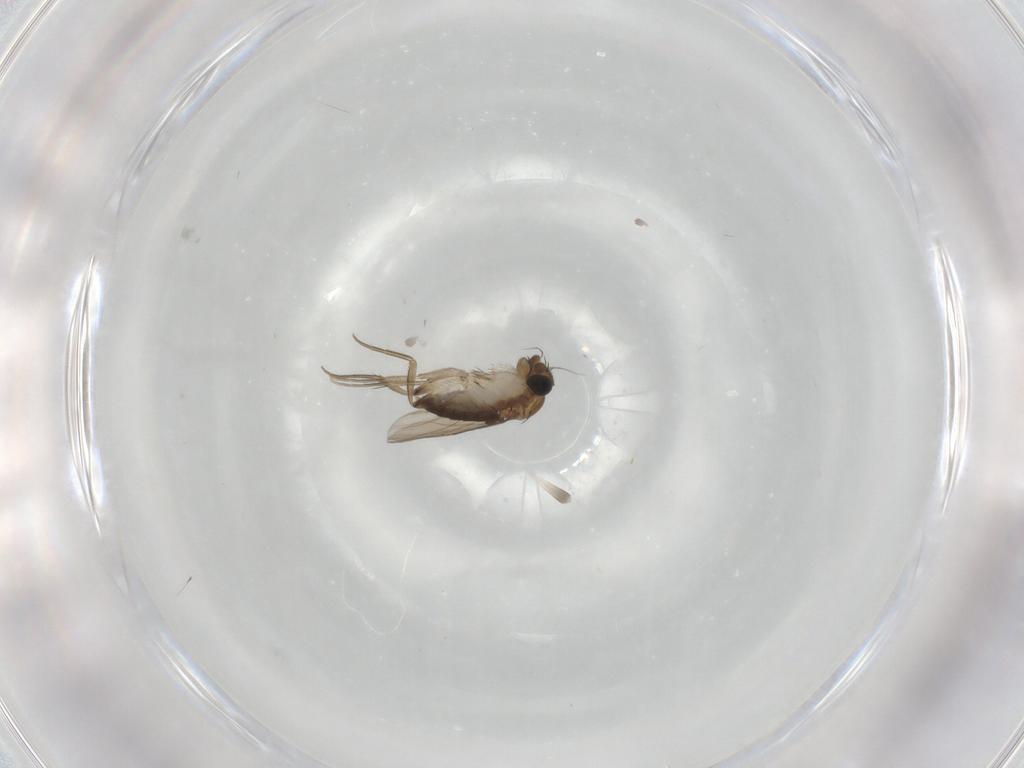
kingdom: Animalia
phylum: Arthropoda
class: Insecta
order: Diptera
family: Phoridae
